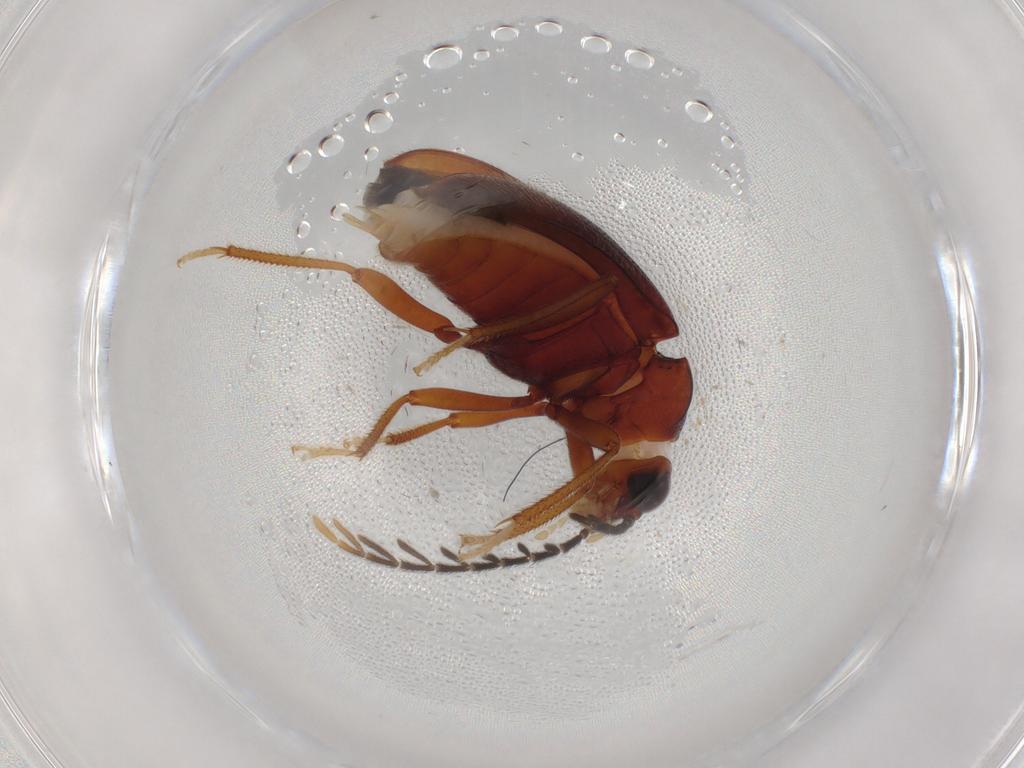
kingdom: Animalia
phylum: Arthropoda
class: Insecta
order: Coleoptera
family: Ptilodactylidae
